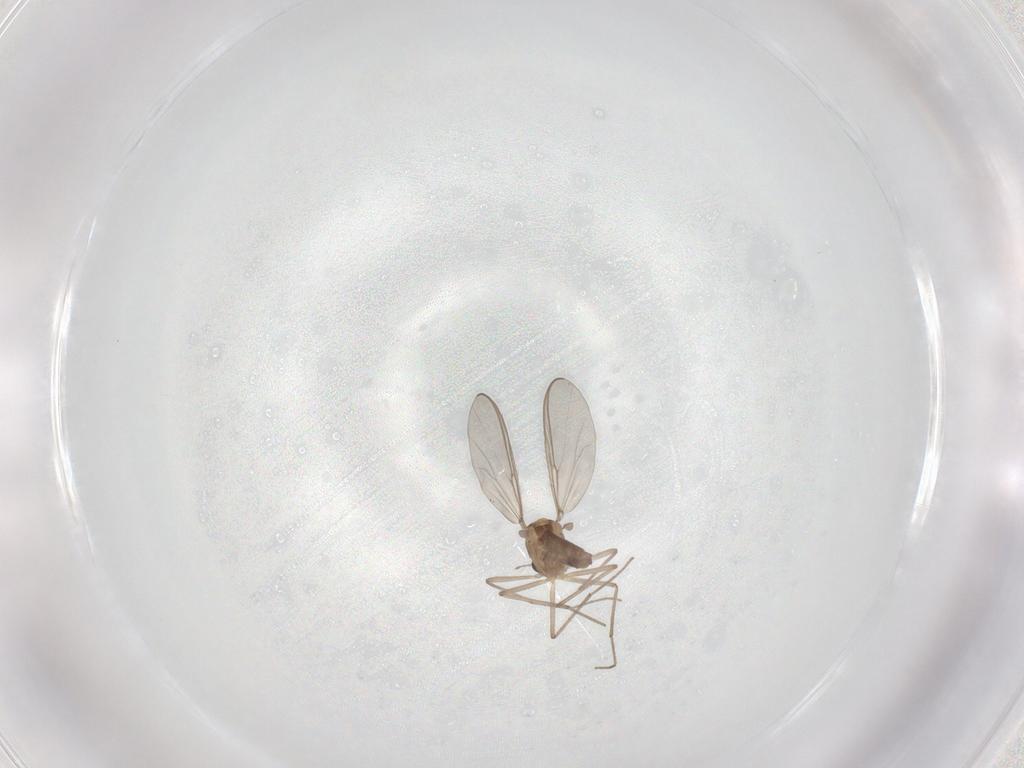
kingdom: Animalia
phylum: Arthropoda
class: Insecta
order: Diptera
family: Chironomidae
